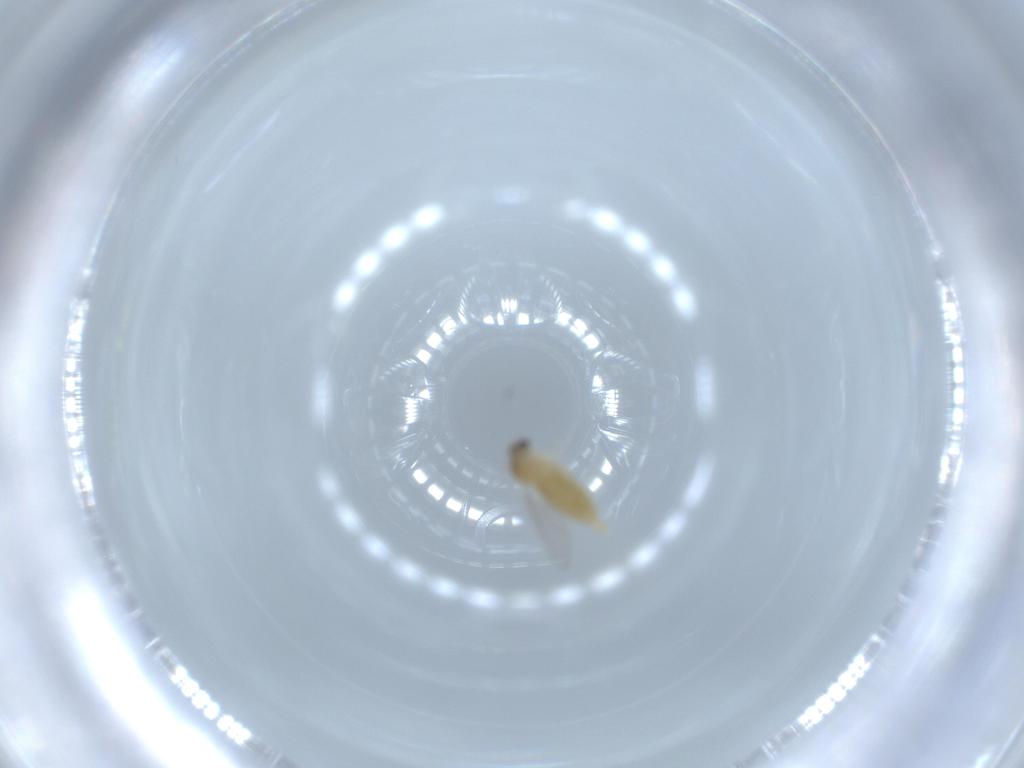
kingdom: Animalia
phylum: Arthropoda
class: Insecta
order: Diptera
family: Cecidomyiidae
